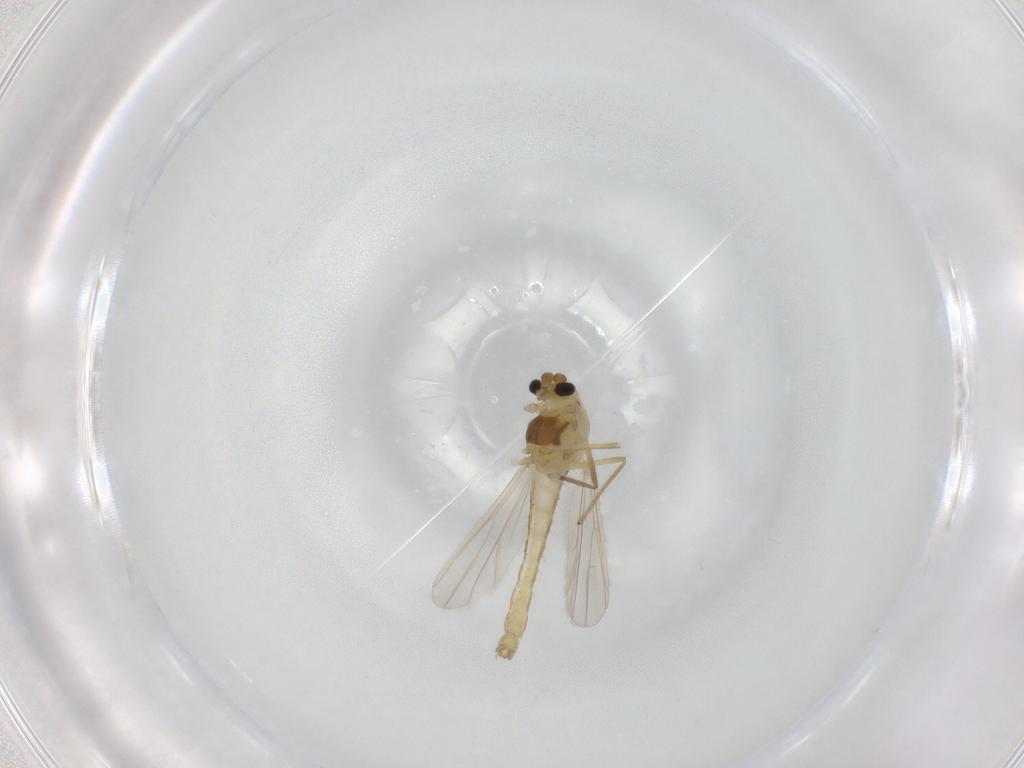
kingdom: Animalia
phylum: Arthropoda
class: Insecta
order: Diptera
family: Chironomidae
